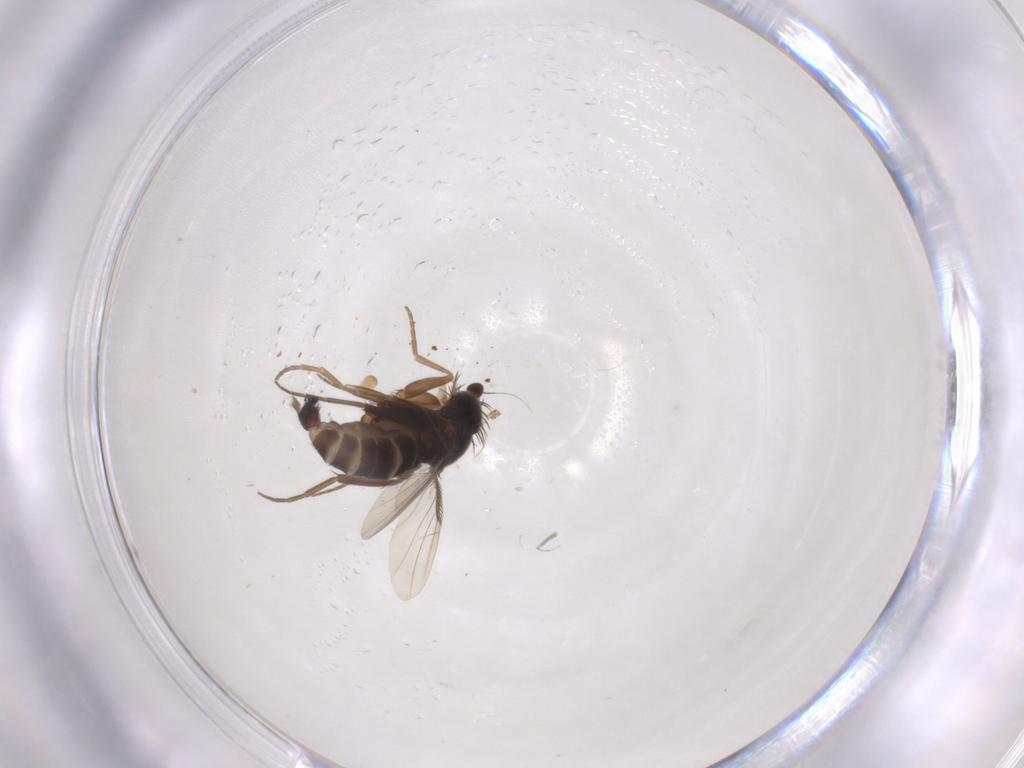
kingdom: Animalia
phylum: Arthropoda
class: Insecta
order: Diptera
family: Phoridae
